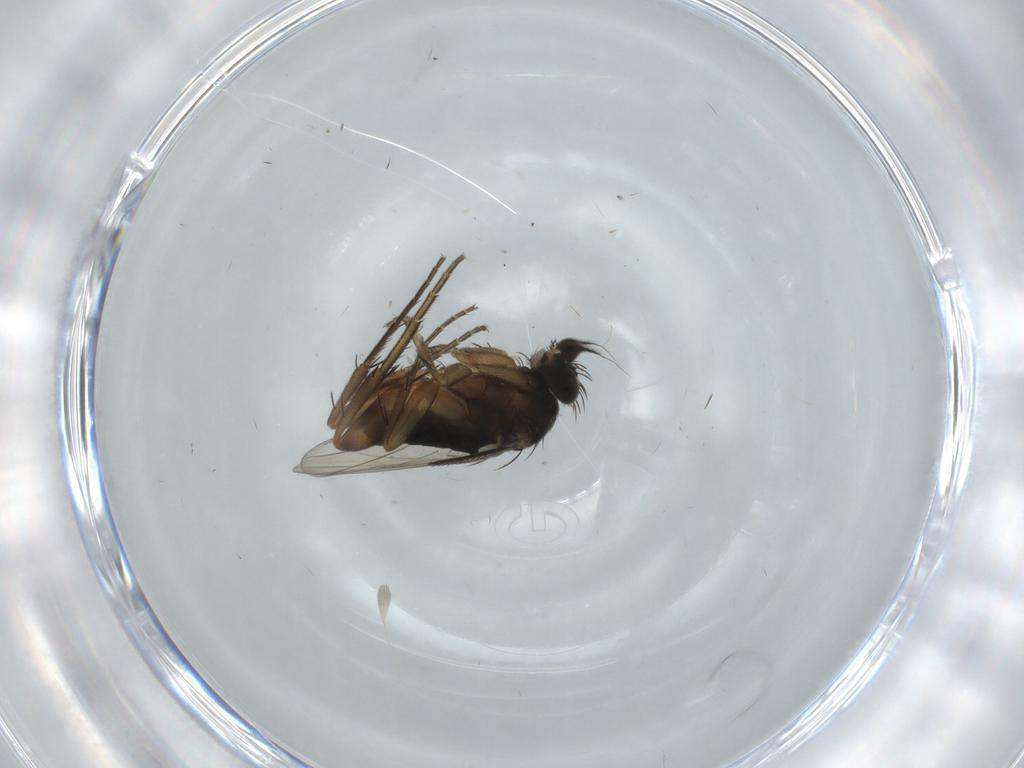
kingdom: Animalia
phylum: Arthropoda
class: Insecta
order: Diptera
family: Phoridae
